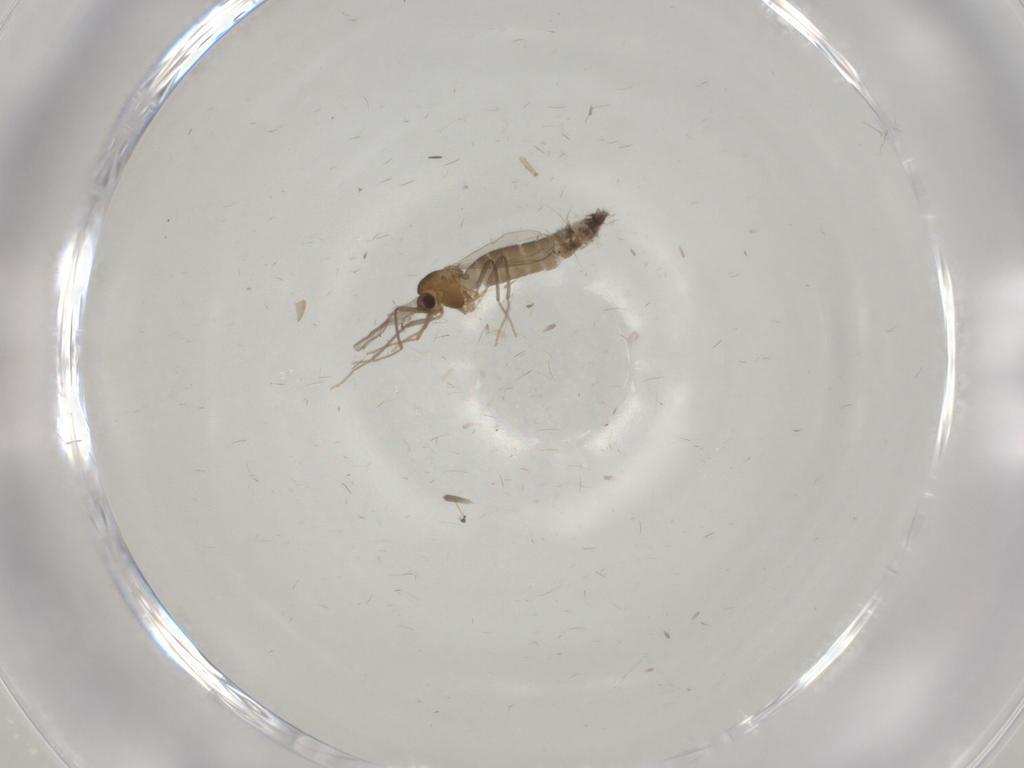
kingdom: Animalia
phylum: Arthropoda
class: Insecta
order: Diptera
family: Chironomidae
